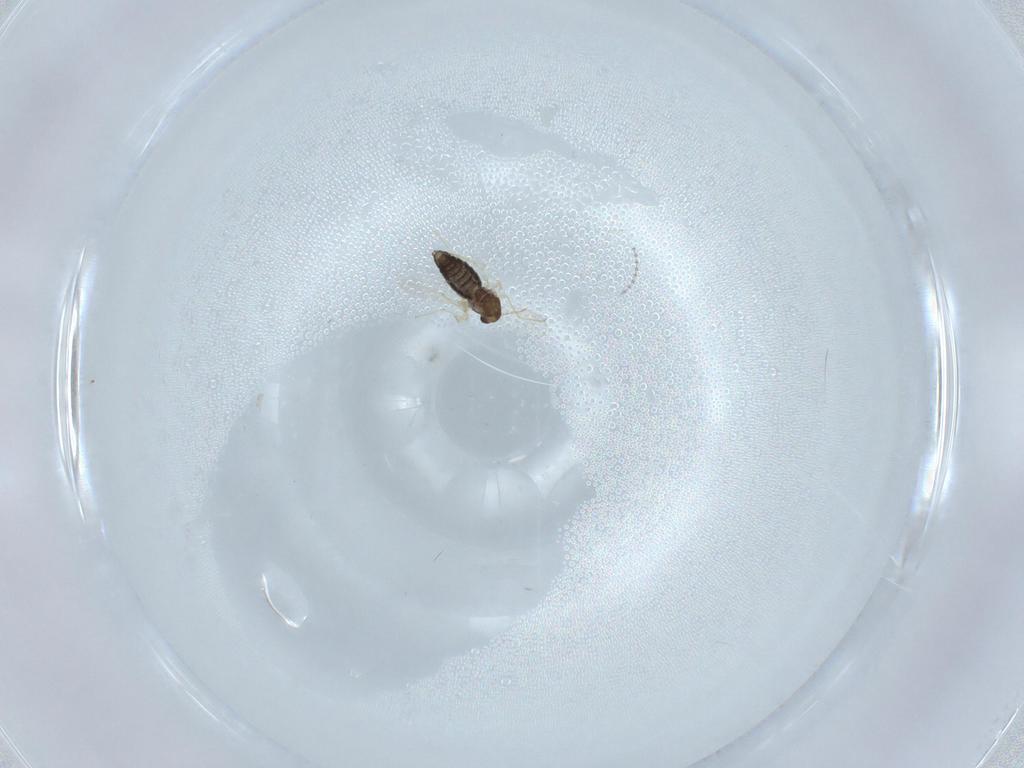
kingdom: Animalia
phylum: Arthropoda
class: Insecta
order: Diptera
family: Chironomidae
